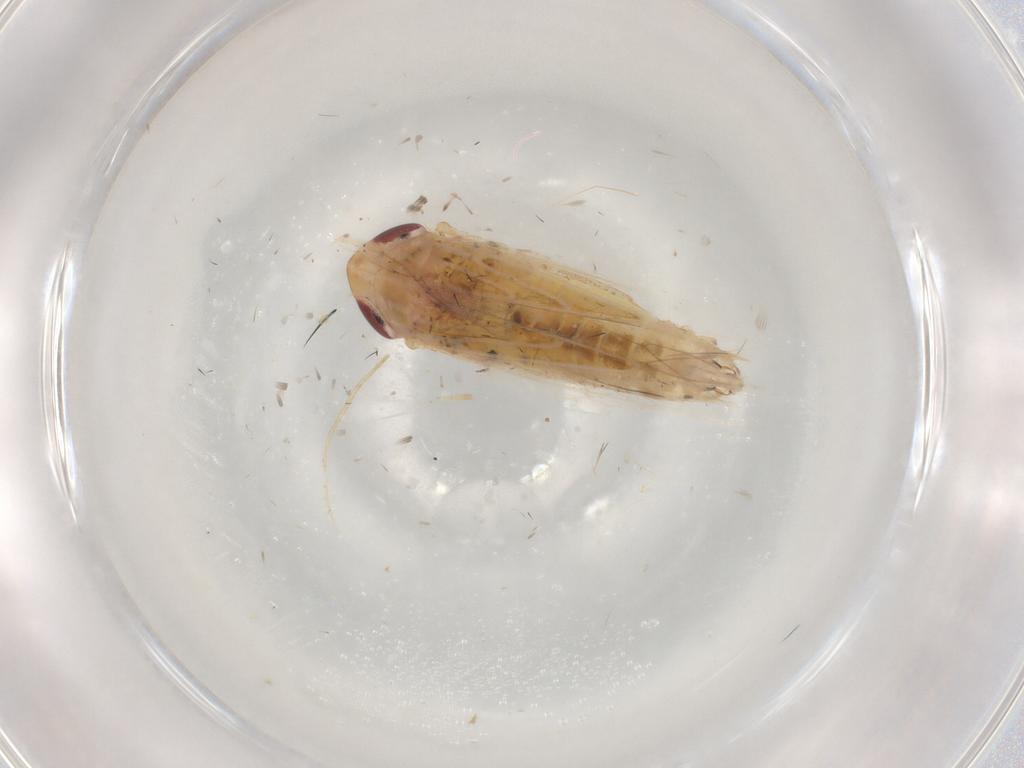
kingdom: Animalia
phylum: Arthropoda
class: Insecta
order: Hemiptera
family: Cicadellidae
